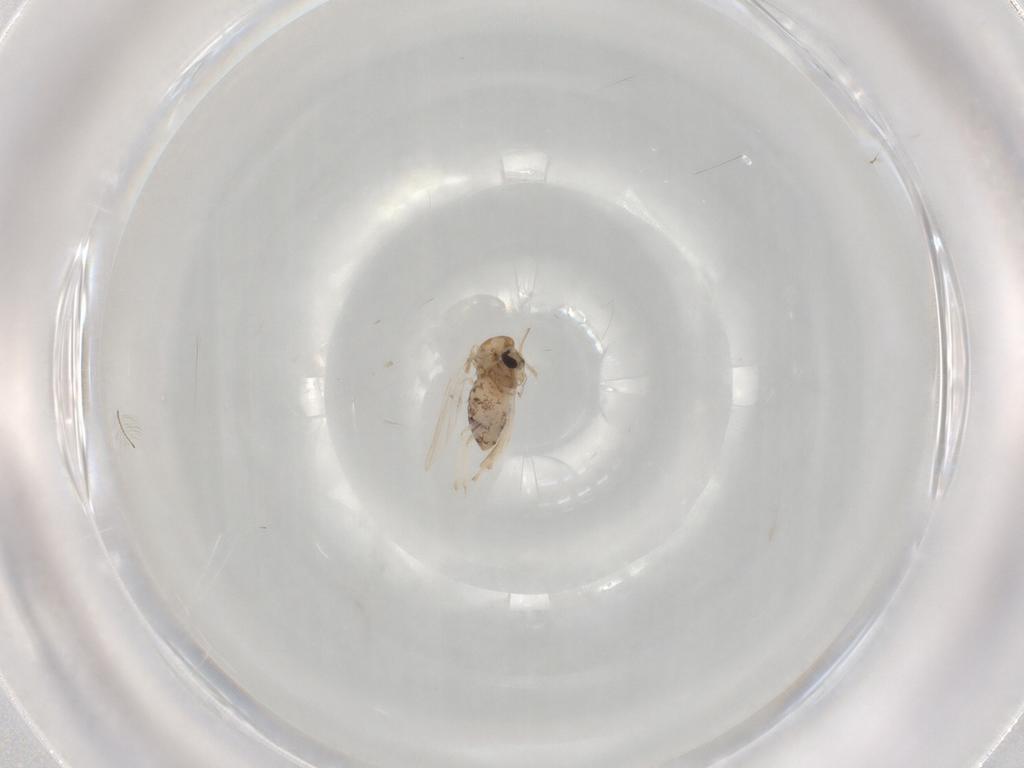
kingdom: Animalia
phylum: Arthropoda
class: Insecta
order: Diptera
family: Chironomidae
